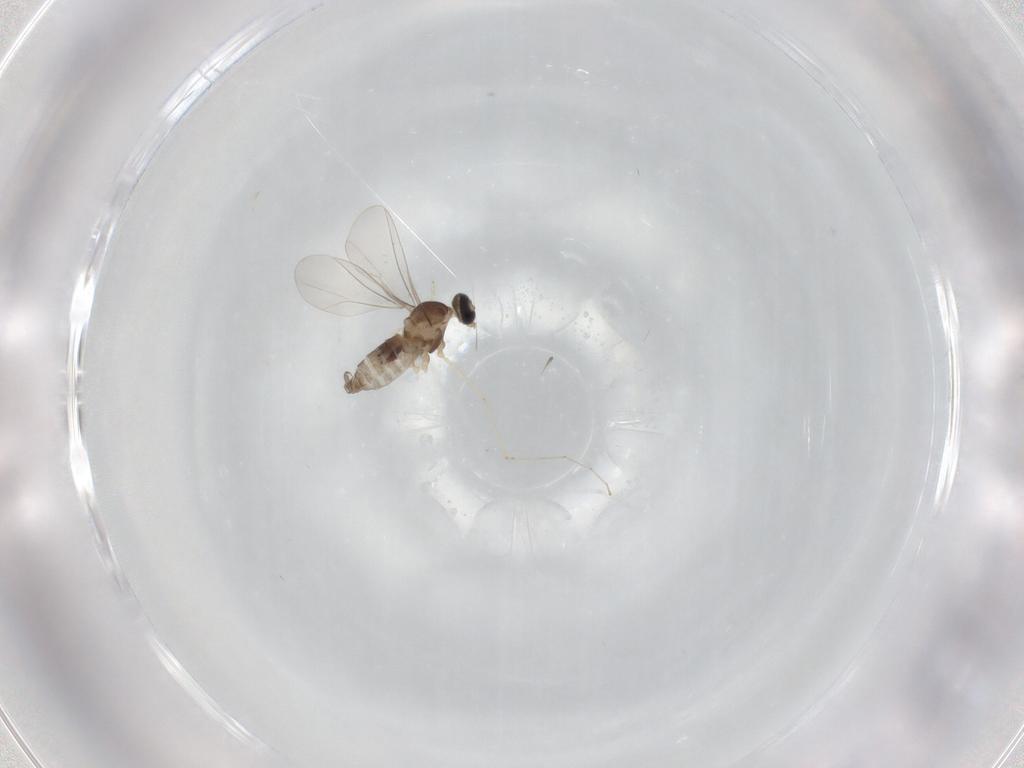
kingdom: Animalia
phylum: Arthropoda
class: Insecta
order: Diptera
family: Cecidomyiidae
